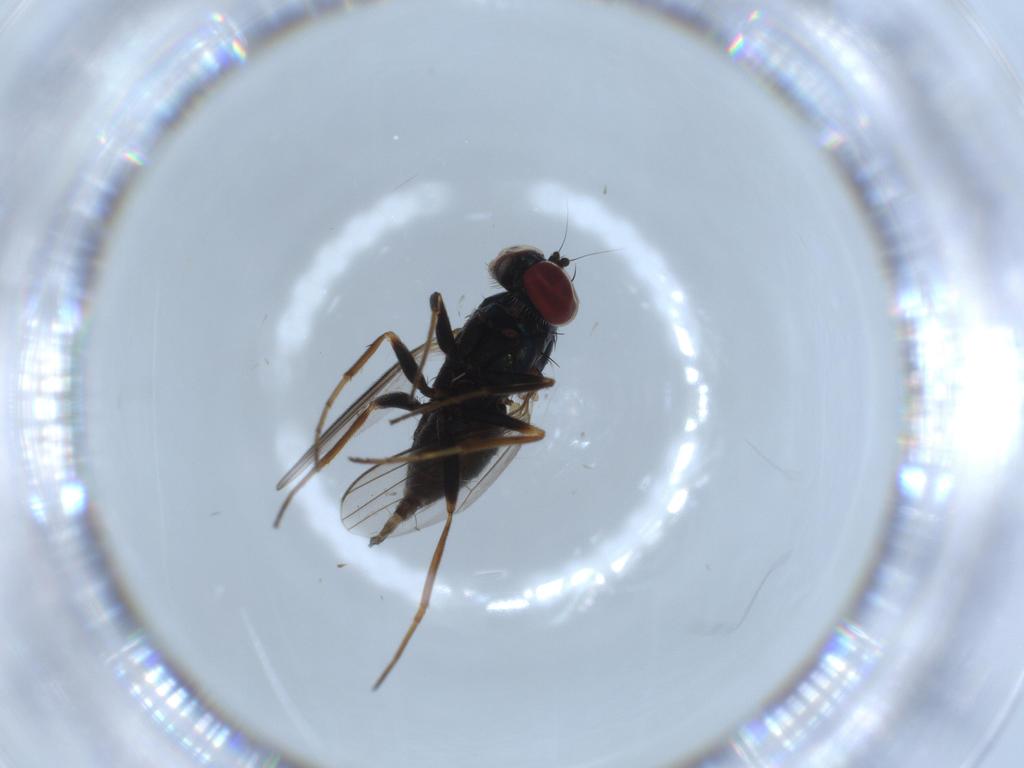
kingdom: Animalia
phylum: Arthropoda
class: Insecta
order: Diptera
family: Dolichopodidae
